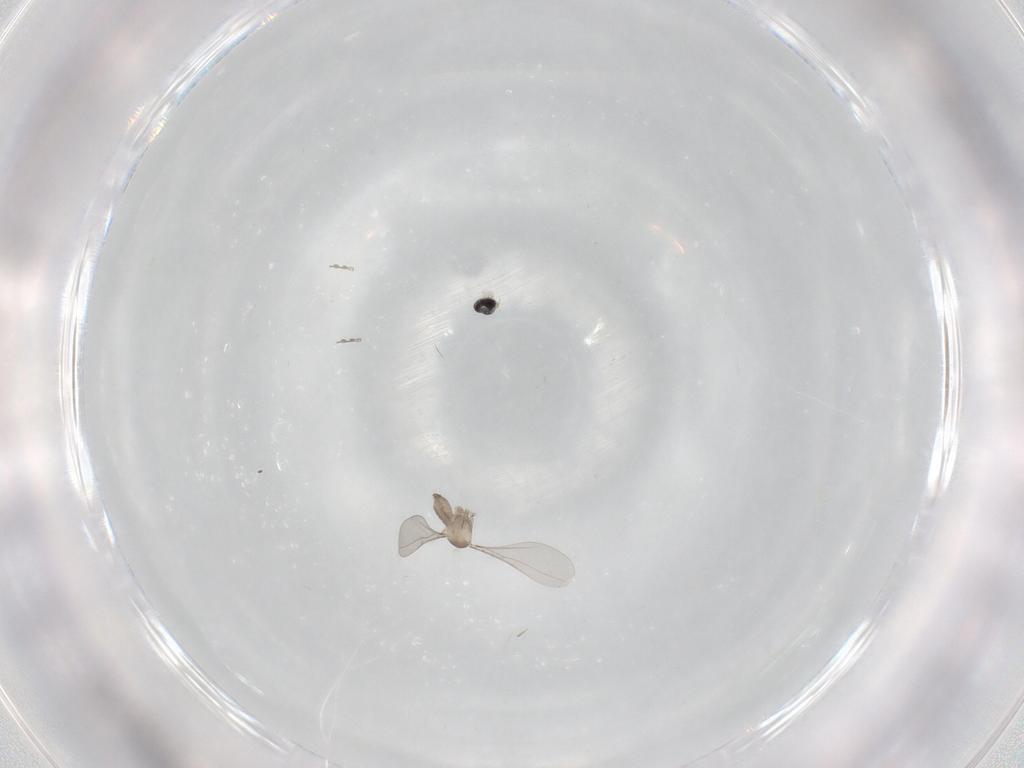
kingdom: Animalia
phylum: Arthropoda
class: Insecta
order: Diptera
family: Cecidomyiidae
